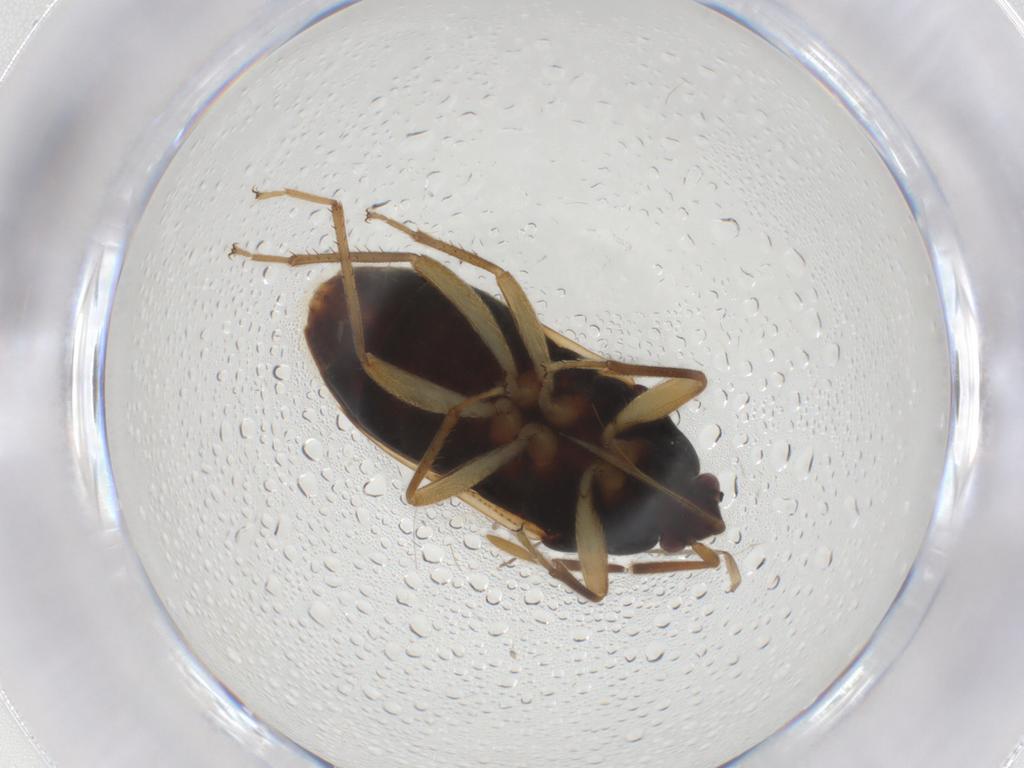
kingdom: Animalia
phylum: Arthropoda
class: Insecta
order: Hemiptera
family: Rhyparochromidae
